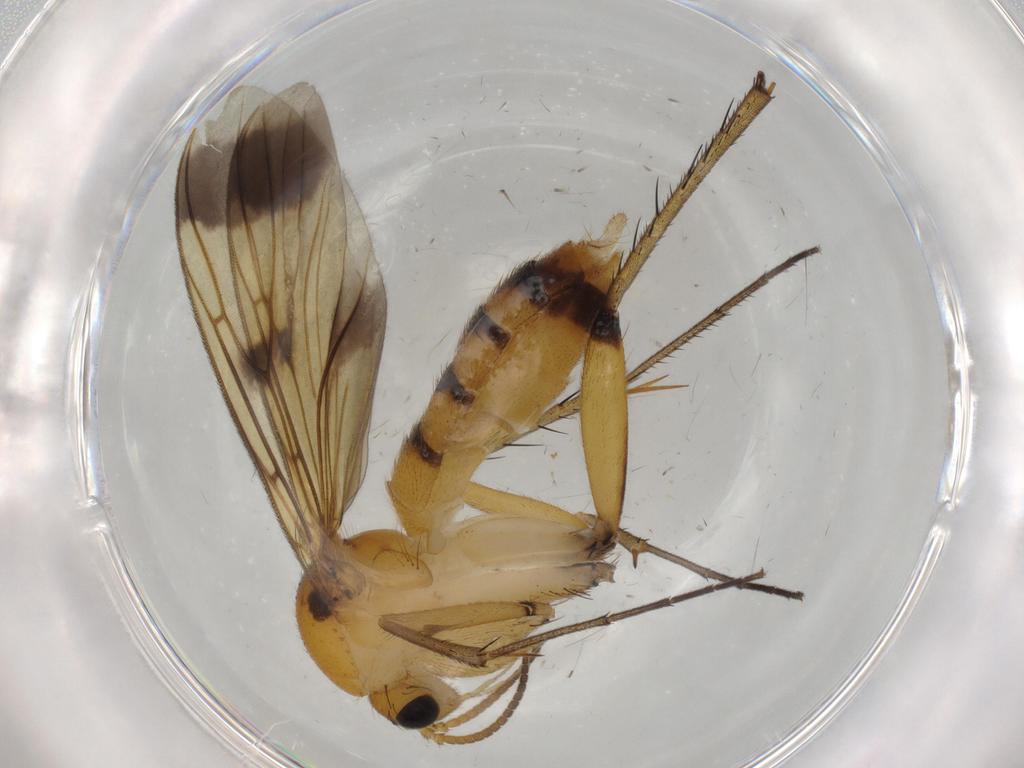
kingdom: Animalia
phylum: Arthropoda
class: Insecta
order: Diptera
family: Mycetophilidae
